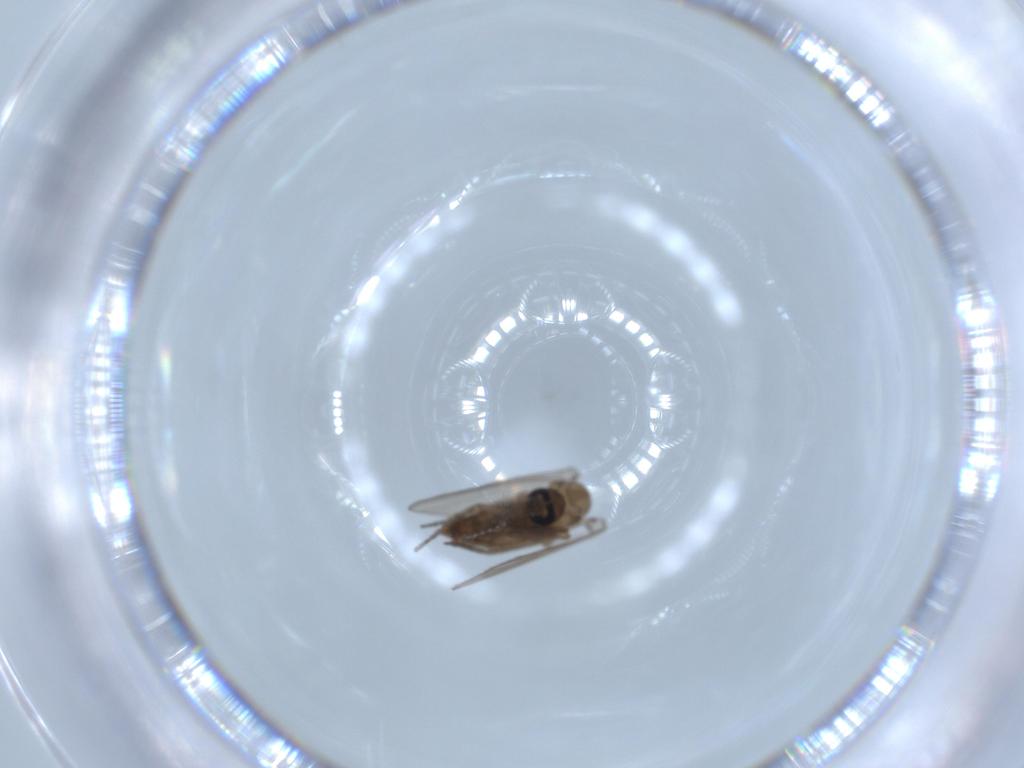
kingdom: Animalia
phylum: Arthropoda
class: Insecta
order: Diptera
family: Psychodidae
